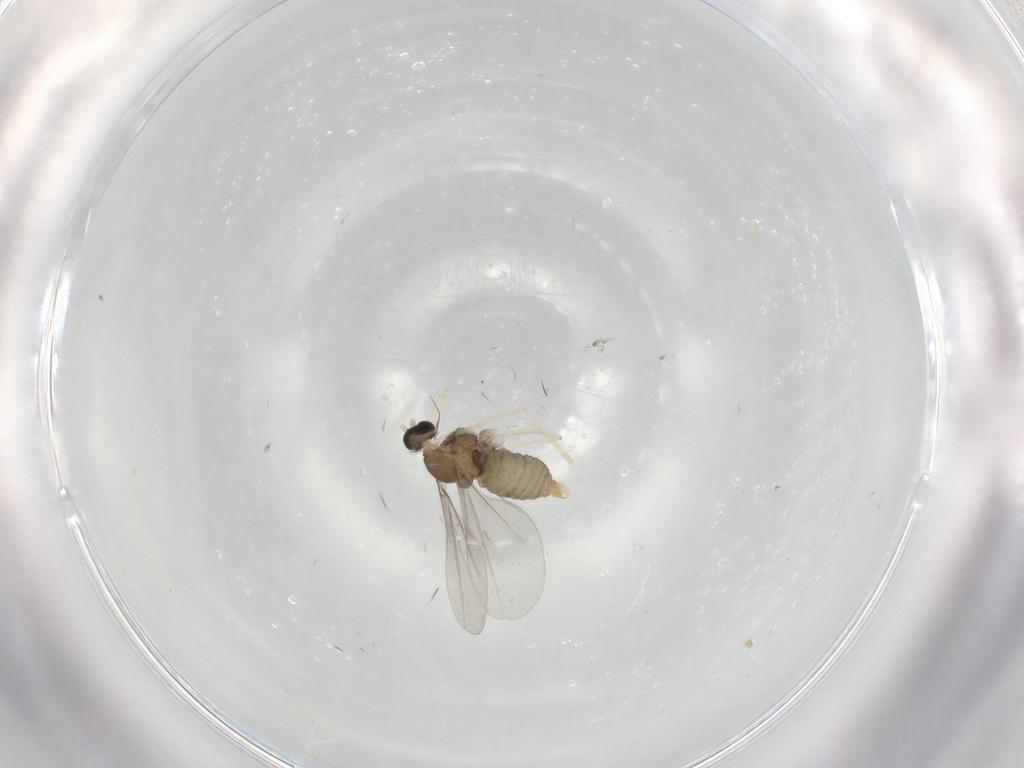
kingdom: Animalia
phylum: Arthropoda
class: Insecta
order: Diptera
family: Cecidomyiidae
